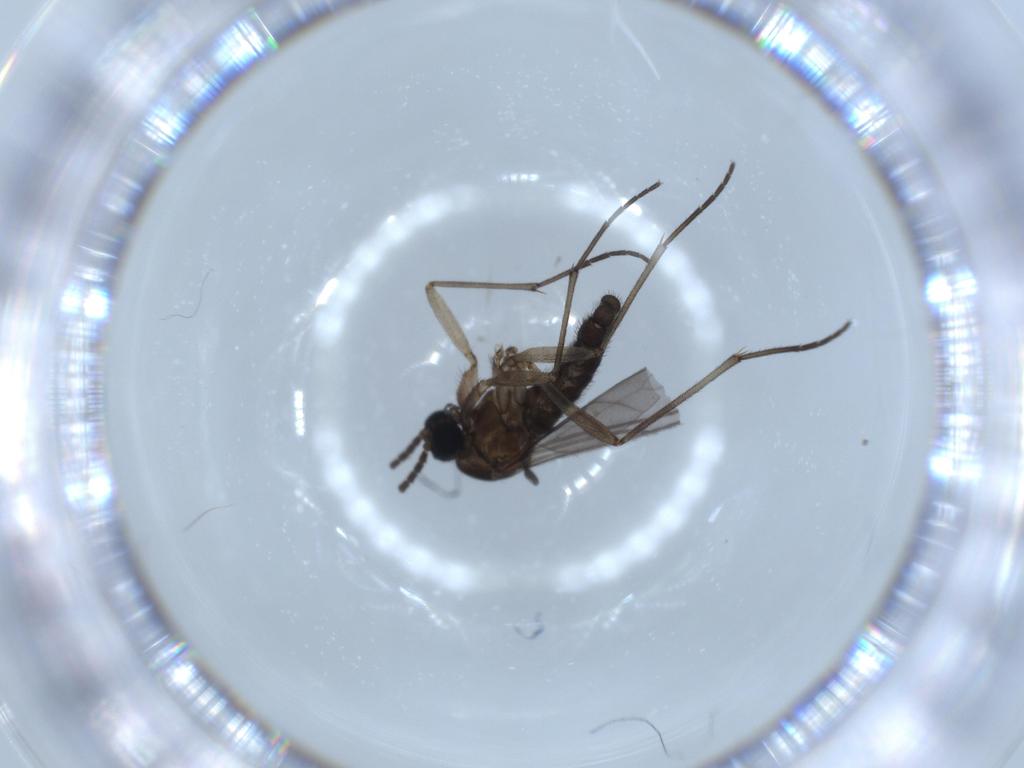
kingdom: Animalia
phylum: Arthropoda
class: Insecta
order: Diptera
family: Sciaridae
